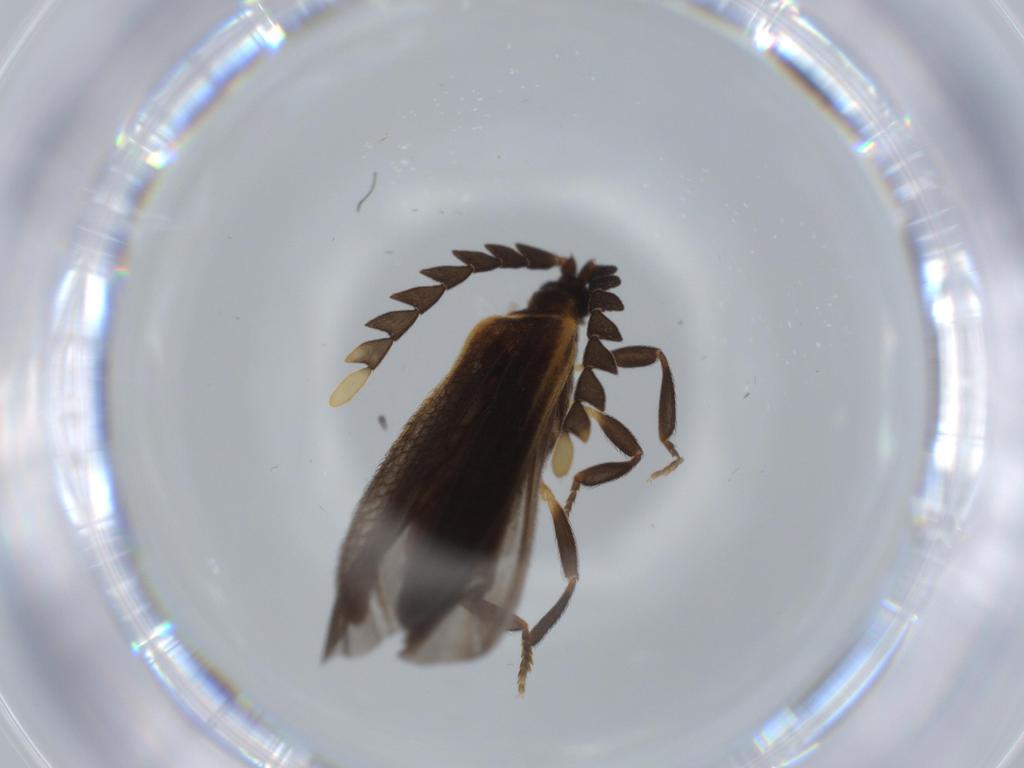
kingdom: Animalia
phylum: Arthropoda
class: Insecta
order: Coleoptera
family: Lycidae
